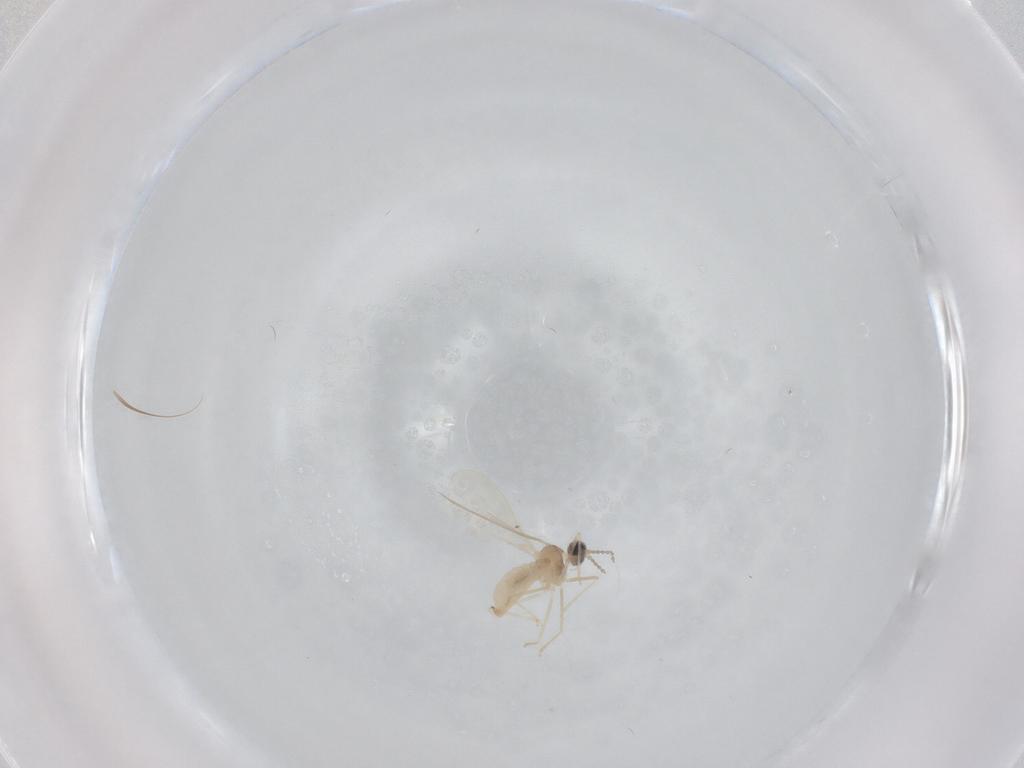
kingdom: Animalia
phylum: Arthropoda
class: Insecta
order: Diptera
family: Cecidomyiidae
